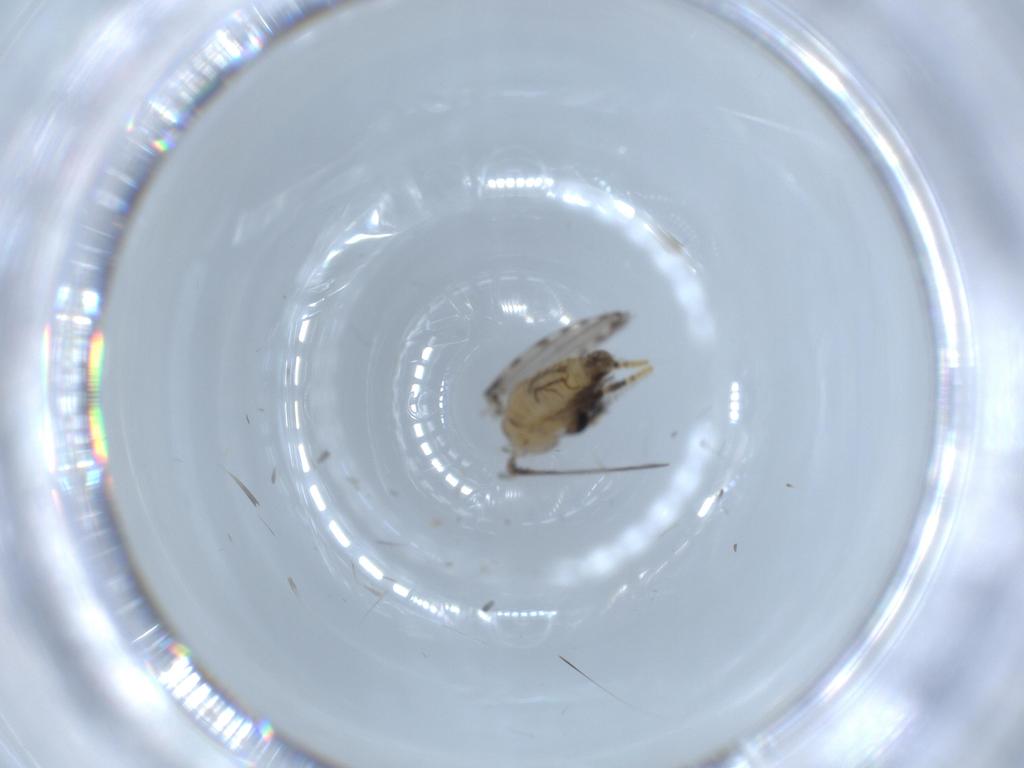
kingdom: Animalia
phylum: Arthropoda
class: Insecta
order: Diptera
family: Psychodidae
